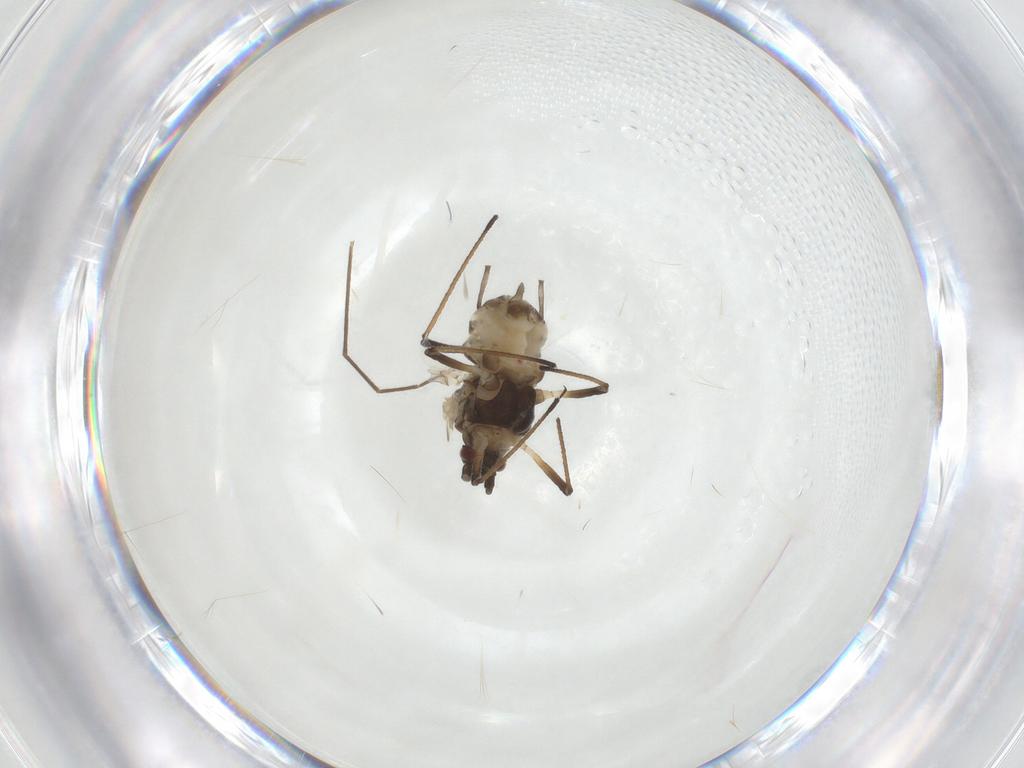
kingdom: Animalia
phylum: Arthropoda
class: Insecta
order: Hemiptera
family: Aphididae
